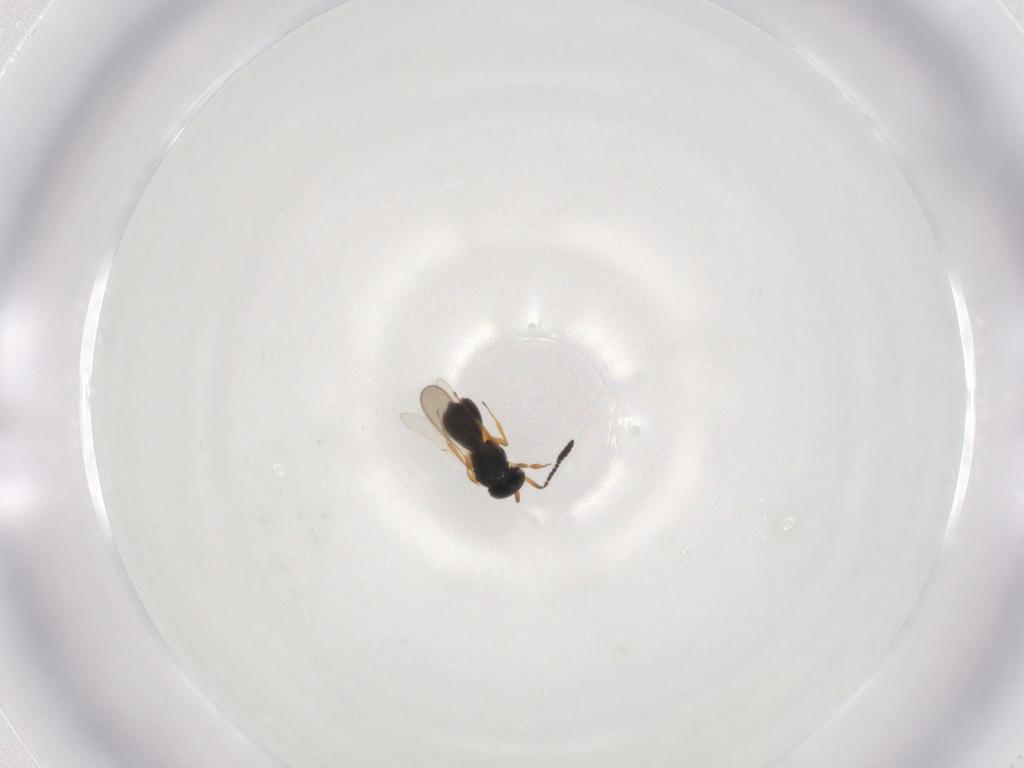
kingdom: Animalia
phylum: Arthropoda
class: Insecta
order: Hymenoptera
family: Scelionidae
